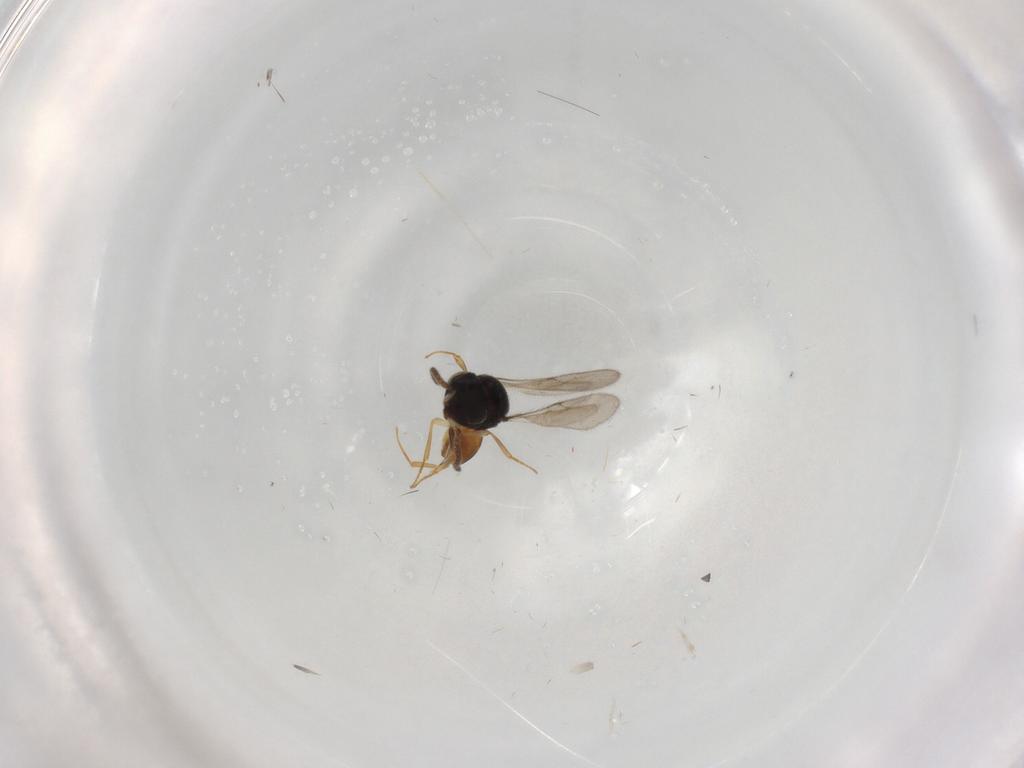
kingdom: Animalia
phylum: Arthropoda
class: Insecta
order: Hymenoptera
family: Scelionidae
